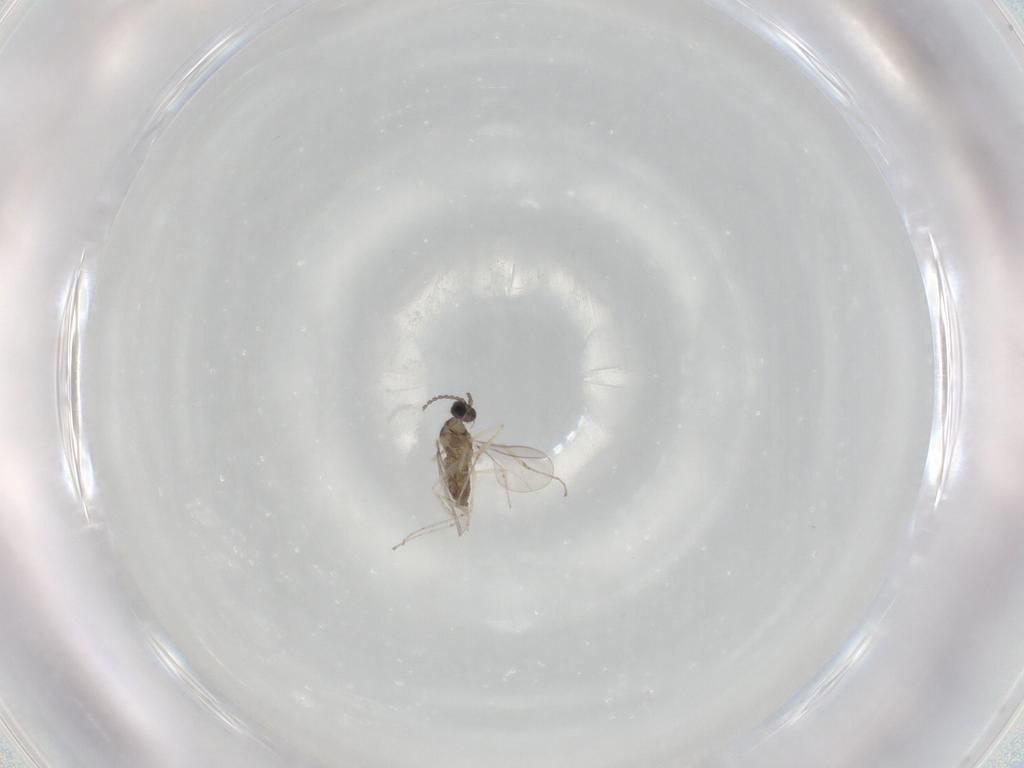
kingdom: Animalia
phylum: Arthropoda
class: Insecta
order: Diptera
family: Cecidomyiidae
